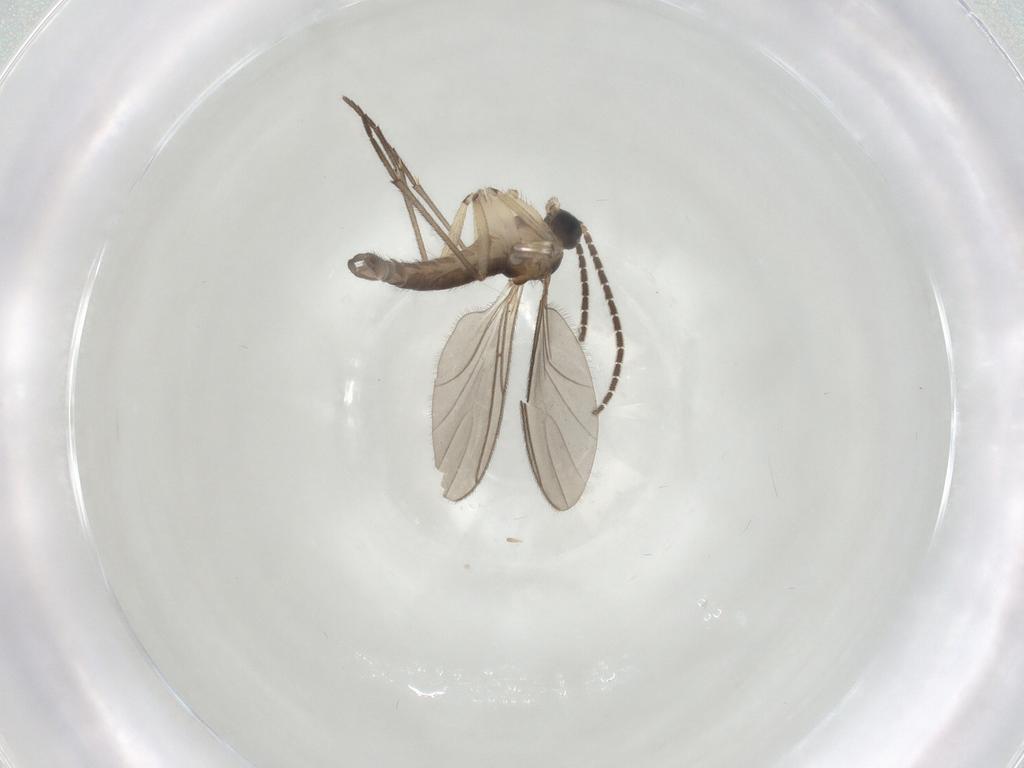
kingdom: Animalia
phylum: Arthropoda
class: Insecta
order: Diptera
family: Sciaridae
